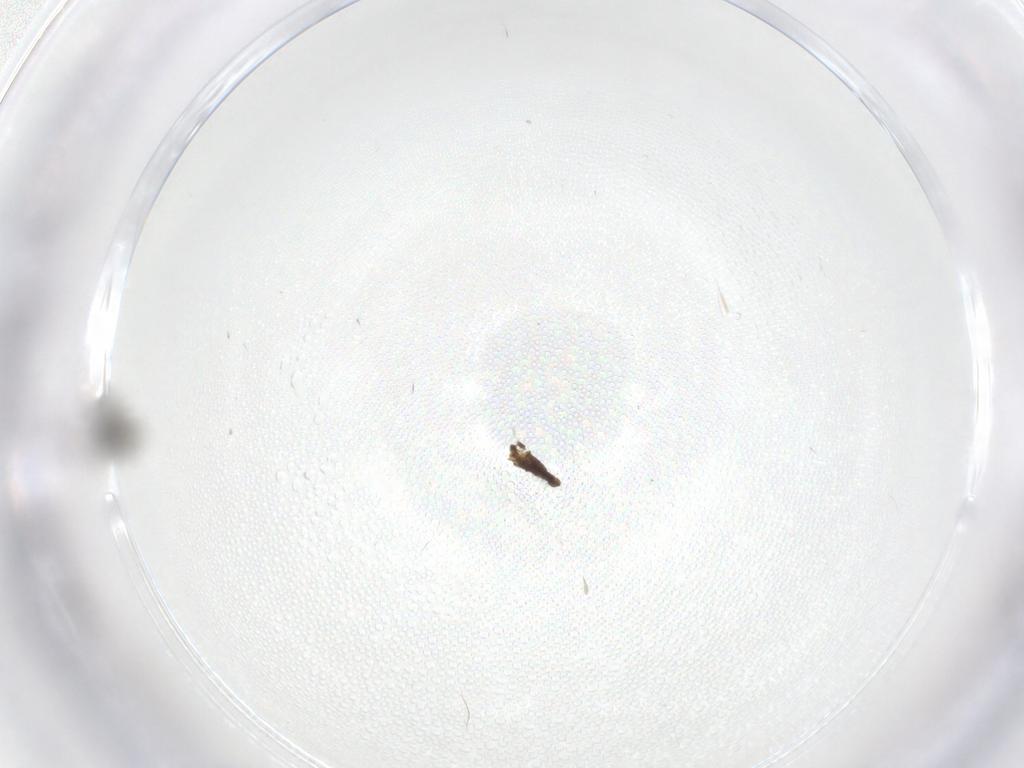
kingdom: Animalia
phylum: Arthropoda
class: Insecta
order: Diptera
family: Chironomidae
